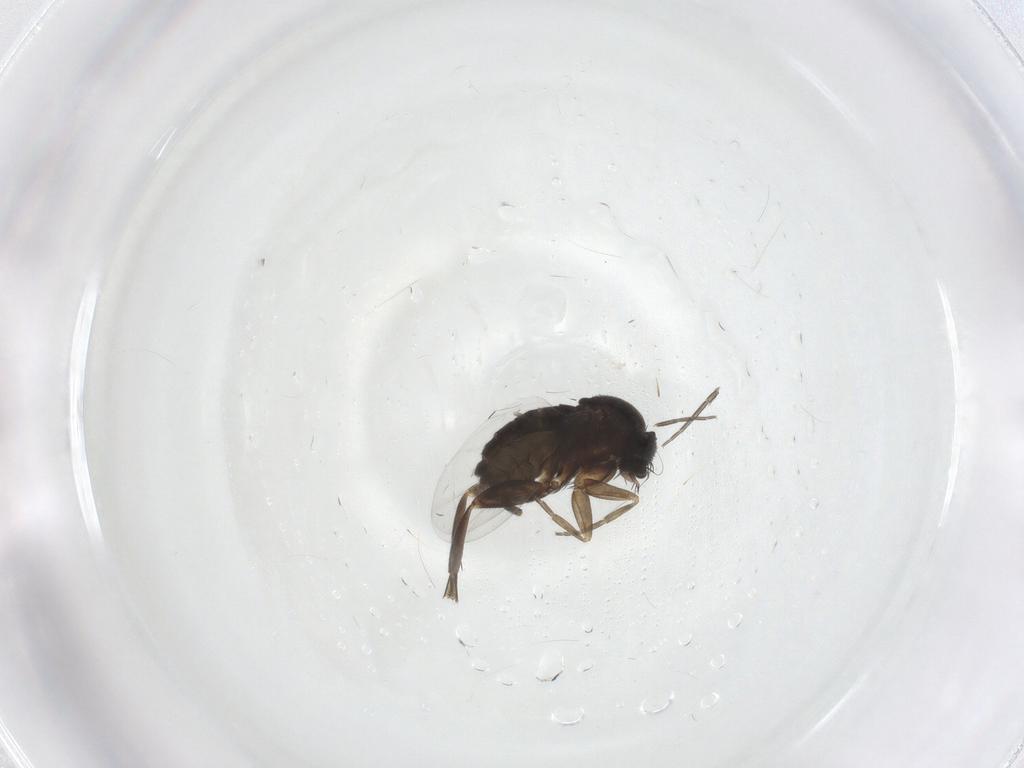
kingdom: Animalia
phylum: Arthropoda
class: Insecta
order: Diptera
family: Phoridae
